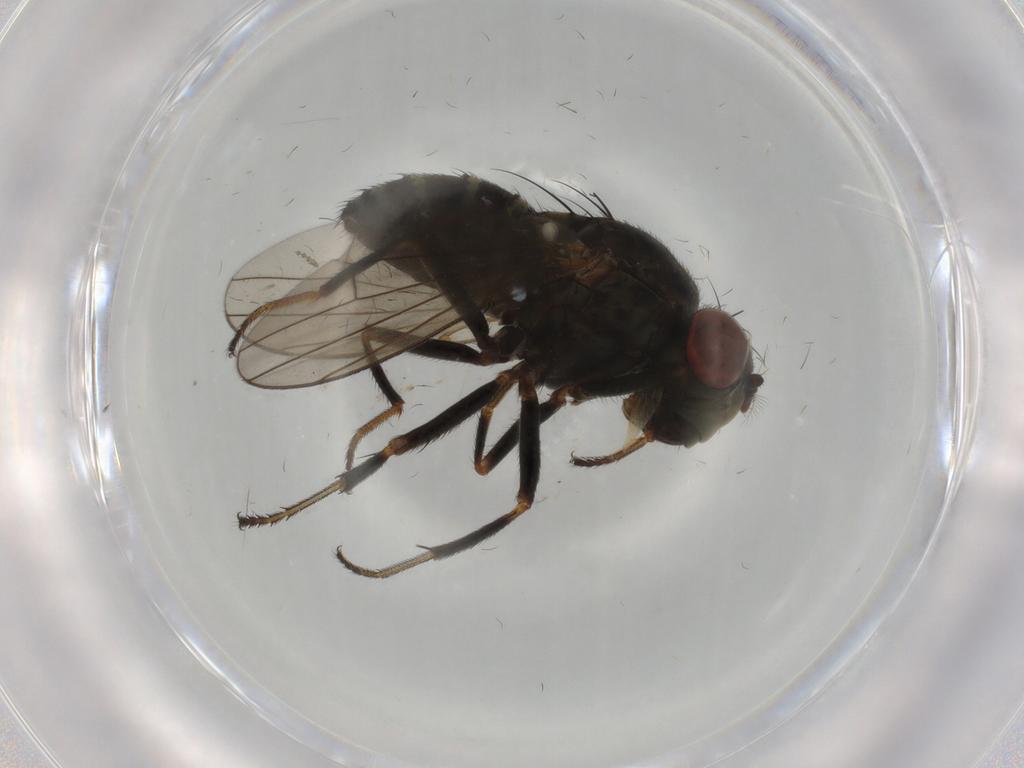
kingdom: Animalia
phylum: Arthropoda
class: Insecta
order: Diptera
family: Ephydridae
